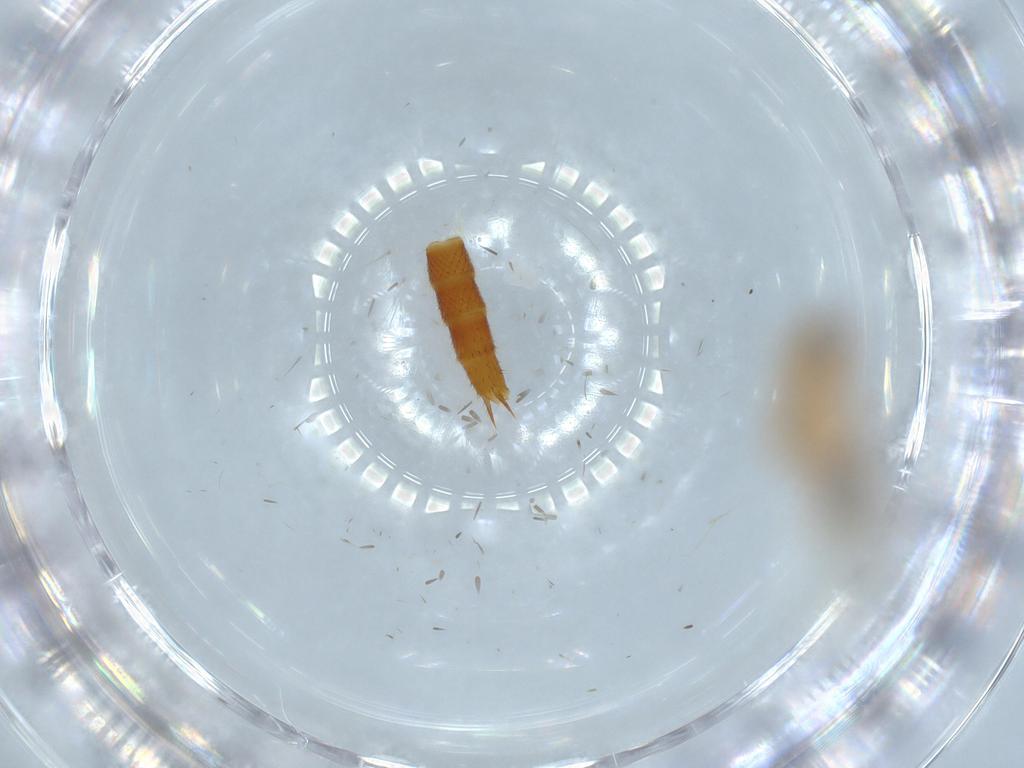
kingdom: Animalia
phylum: Arthropoda
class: Insecta
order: Coleoptera
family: Staphylinidae
